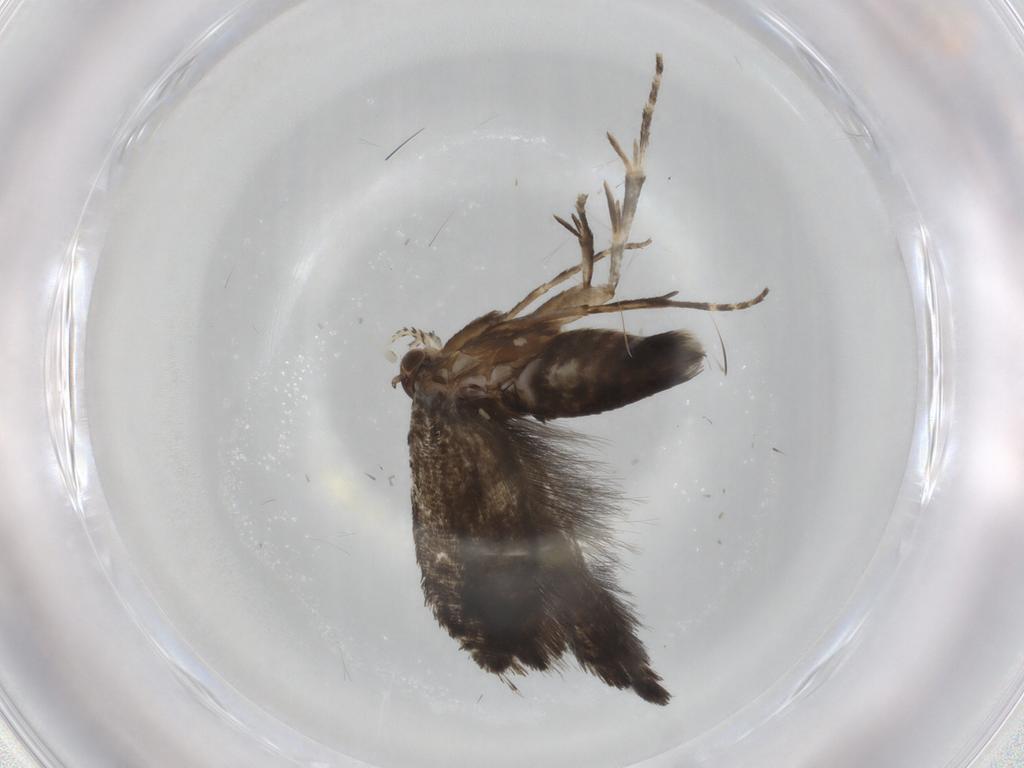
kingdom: Animalia
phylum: Arthropoda
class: Insecta
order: Lepidoptera
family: Glyphipterigidae
